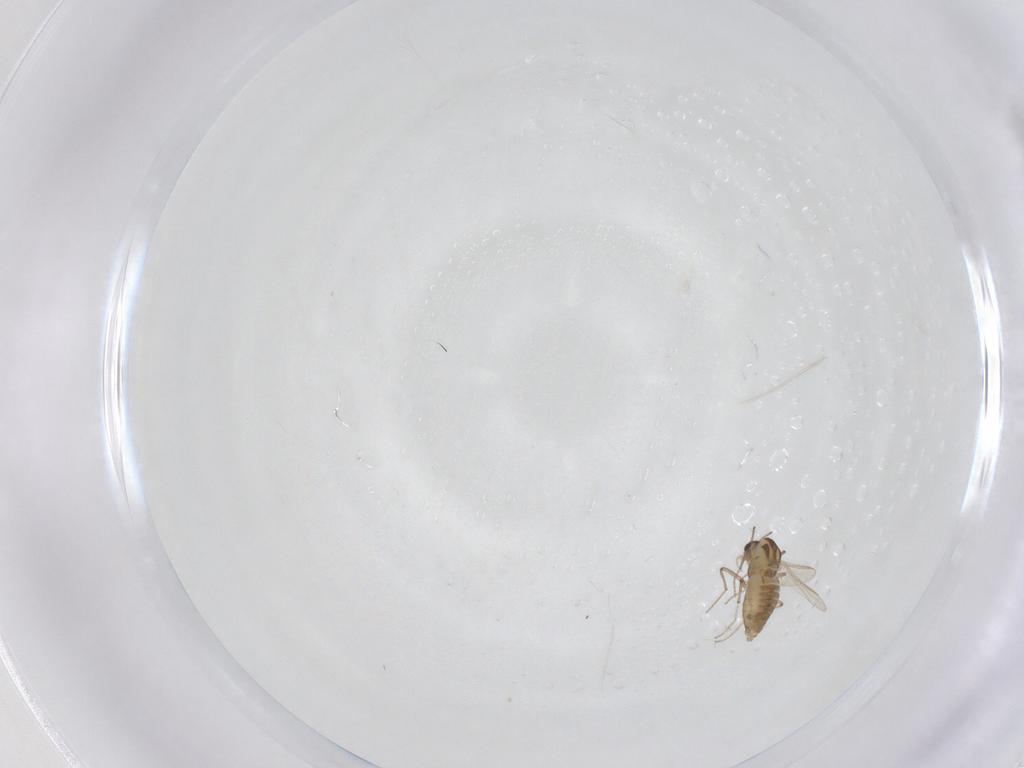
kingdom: Animalia
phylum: Arthropoda
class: Insecta
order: Diptera
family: Chironomidae
